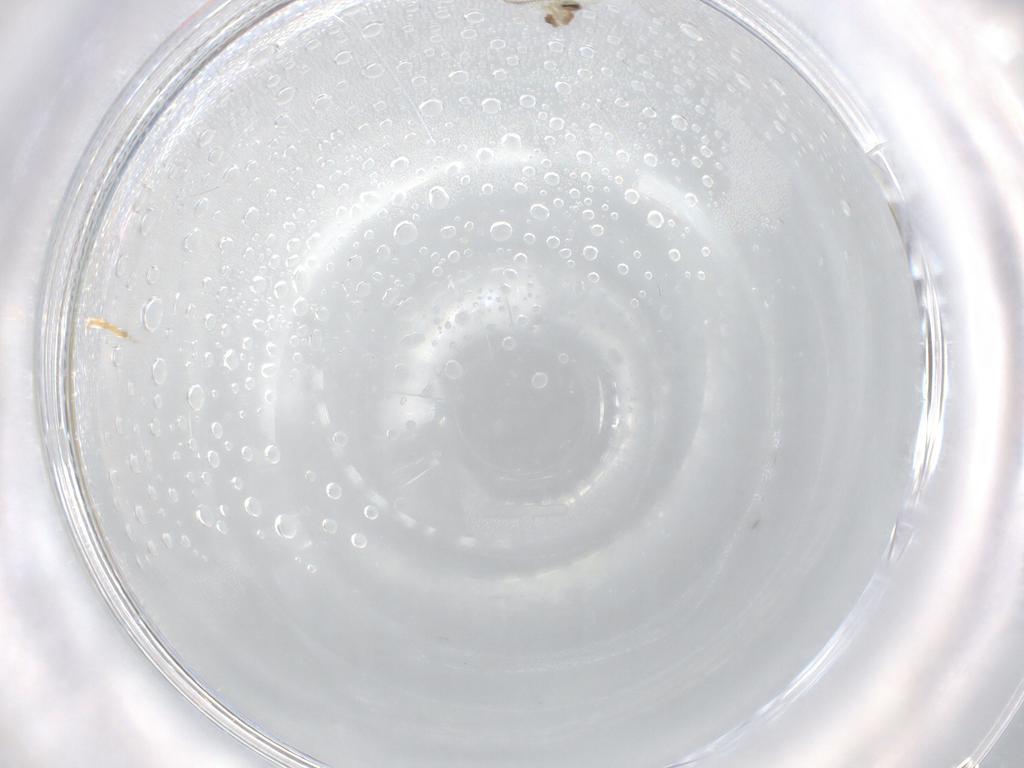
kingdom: Animalia
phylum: Arthropoda
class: Insecta
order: Diptera
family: Cecidomyiidae
